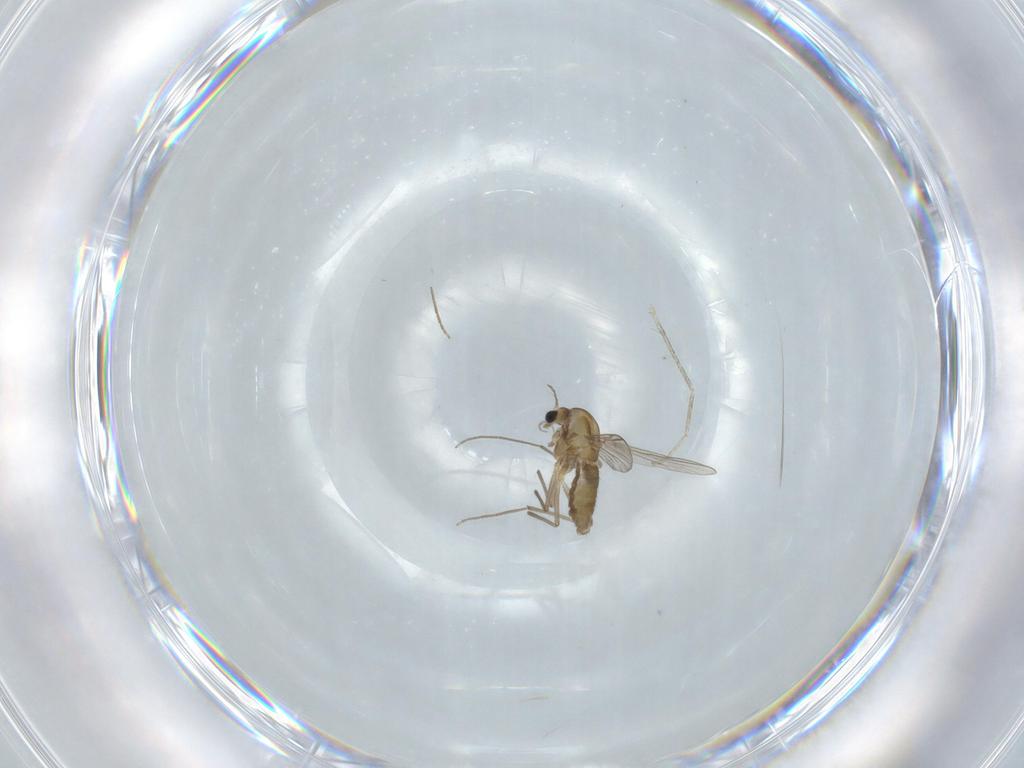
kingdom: Animalia
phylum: Arthropoda
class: Insecta
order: Diptera
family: Chironomidae
